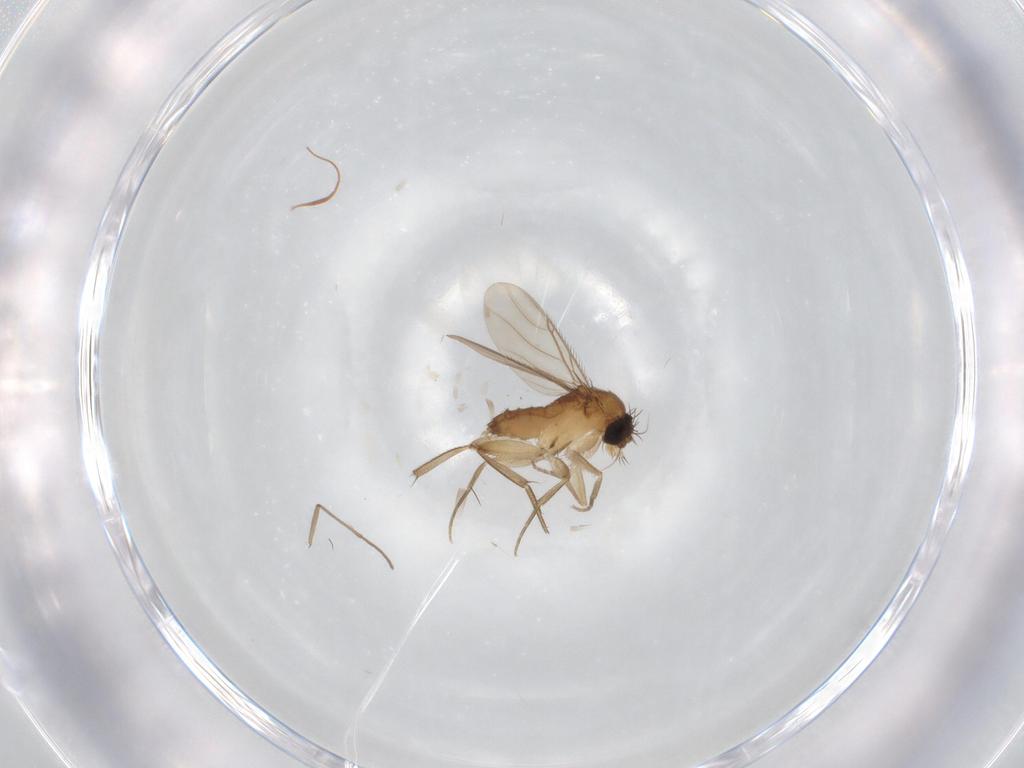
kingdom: Animalia
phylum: Arthropoda
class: Insecta
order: Diptera
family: Phoridae
